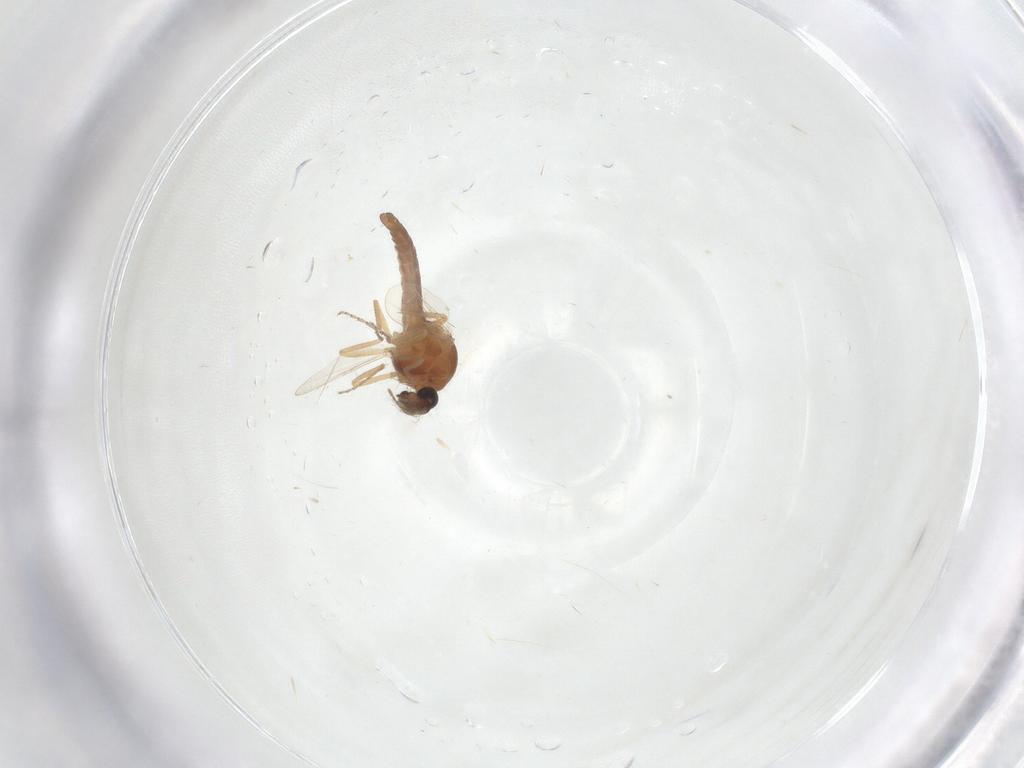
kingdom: Animalia
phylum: Arthropoda
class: Insecta
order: Diptera
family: Ceratopogonidae
